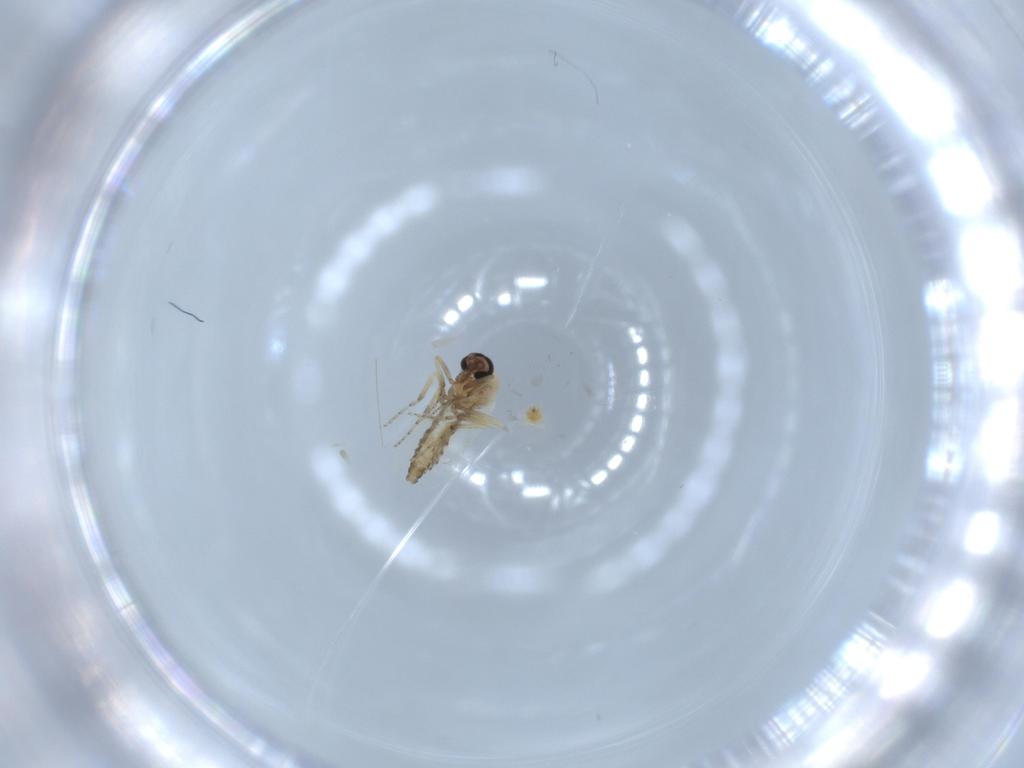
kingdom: Animalia
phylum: Arthropoda
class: Insecta
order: Diptera
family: Ceratopogonidae
